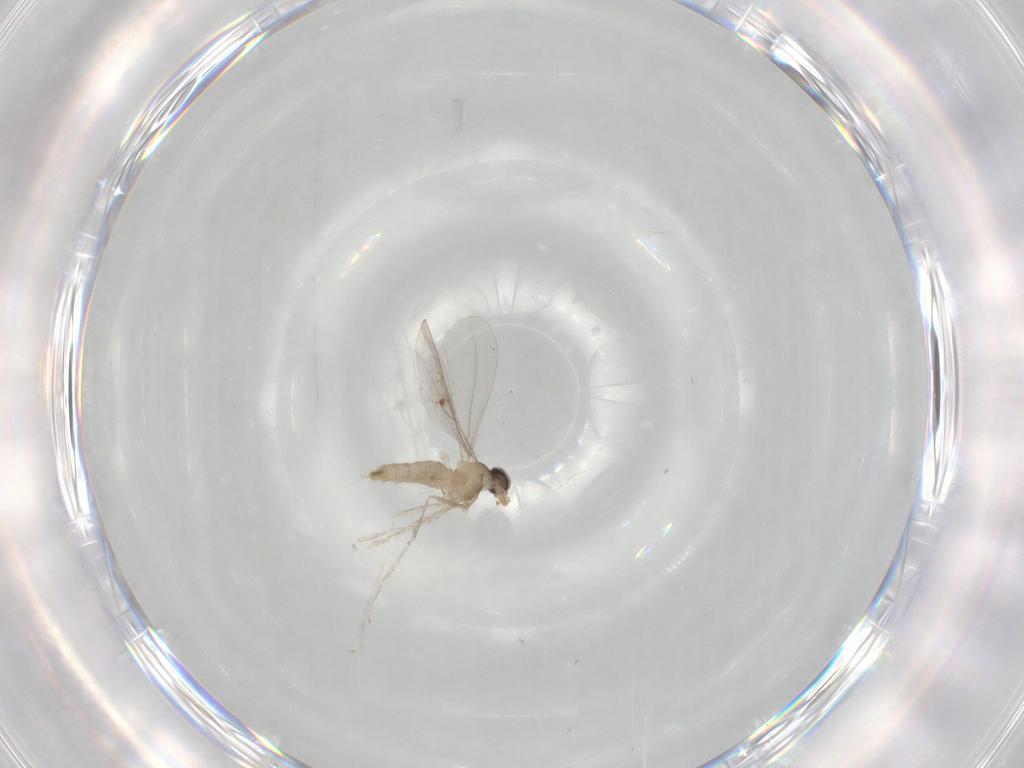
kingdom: Animalia
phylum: Arthropoda
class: Insecta
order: Diptera
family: Cecidomyiidae
